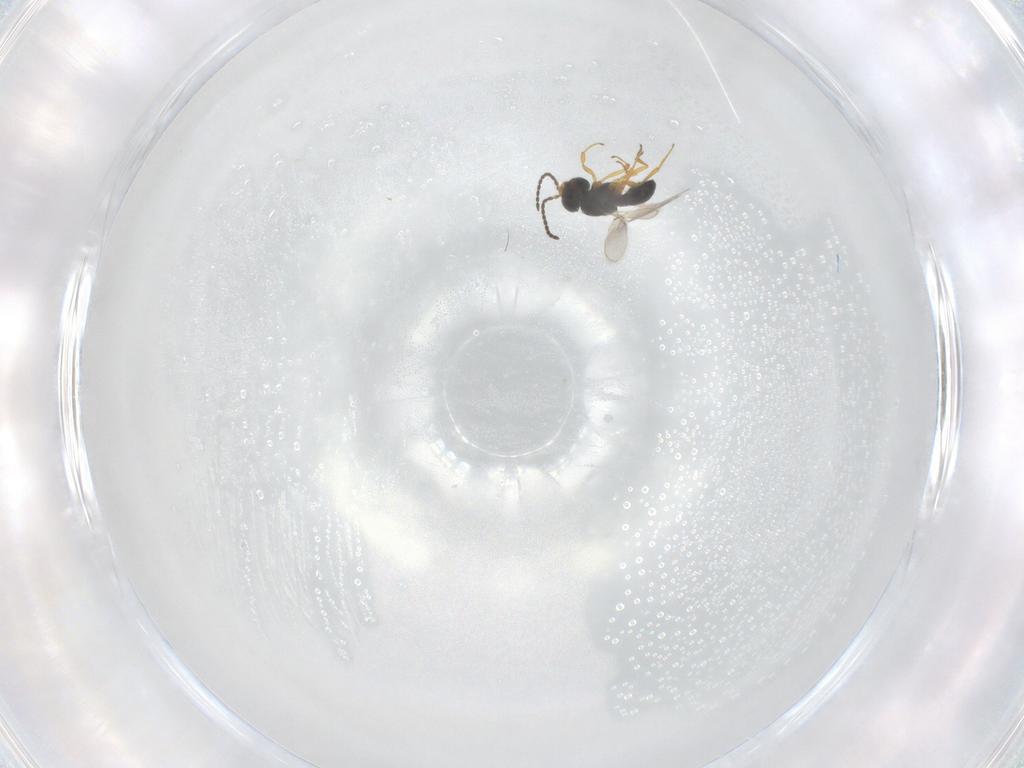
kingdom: Animalia
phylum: Arthropoda
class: Insecta
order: Hymenoptera
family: Scelionidae
